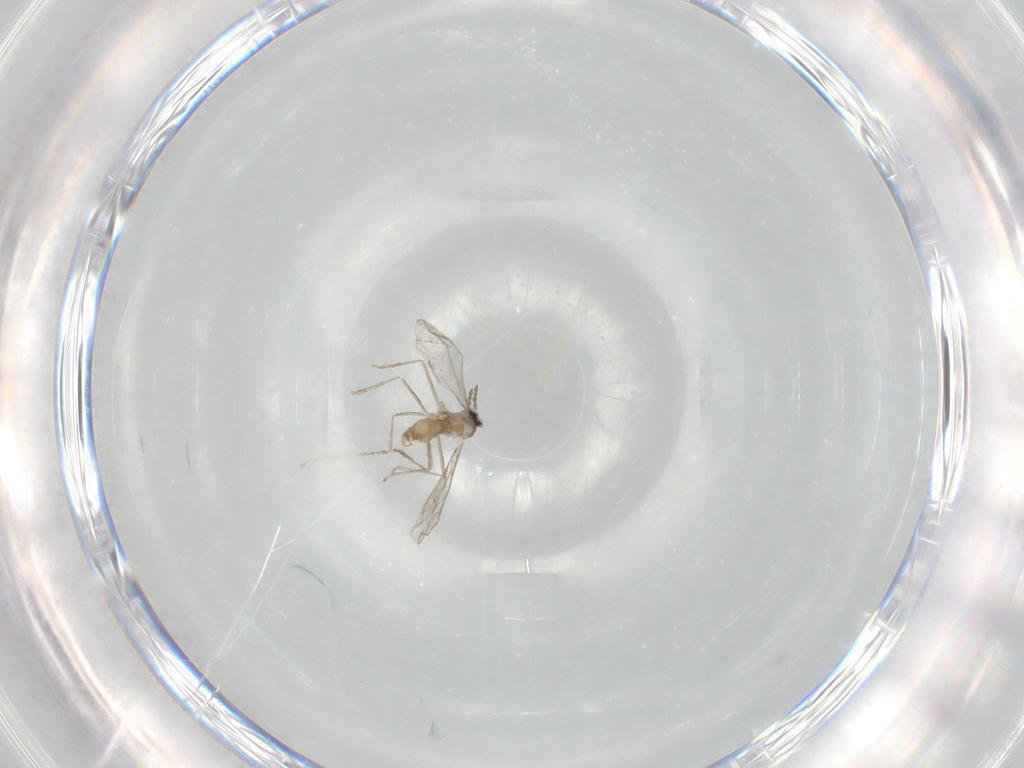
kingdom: Animalia
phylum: Arthropoda
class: Insecta
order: Diptera
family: Cecidomyiidae
